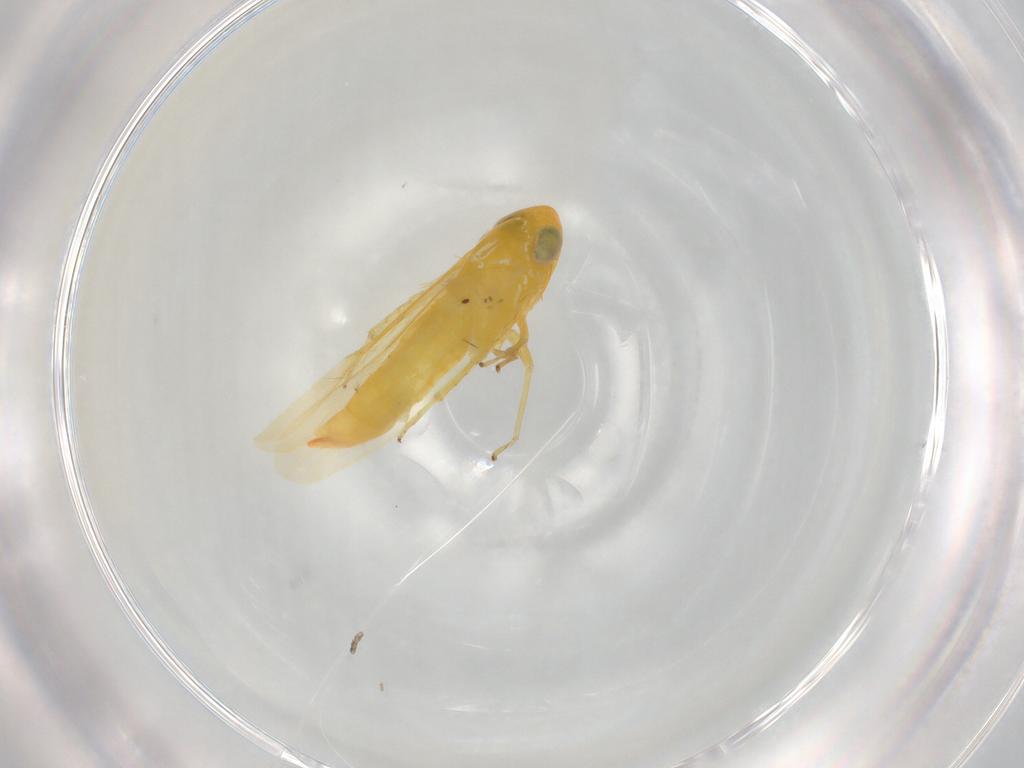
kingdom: Animalia
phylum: Arthropoda
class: Insecta
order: Hemiptera
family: Cicadellidae
